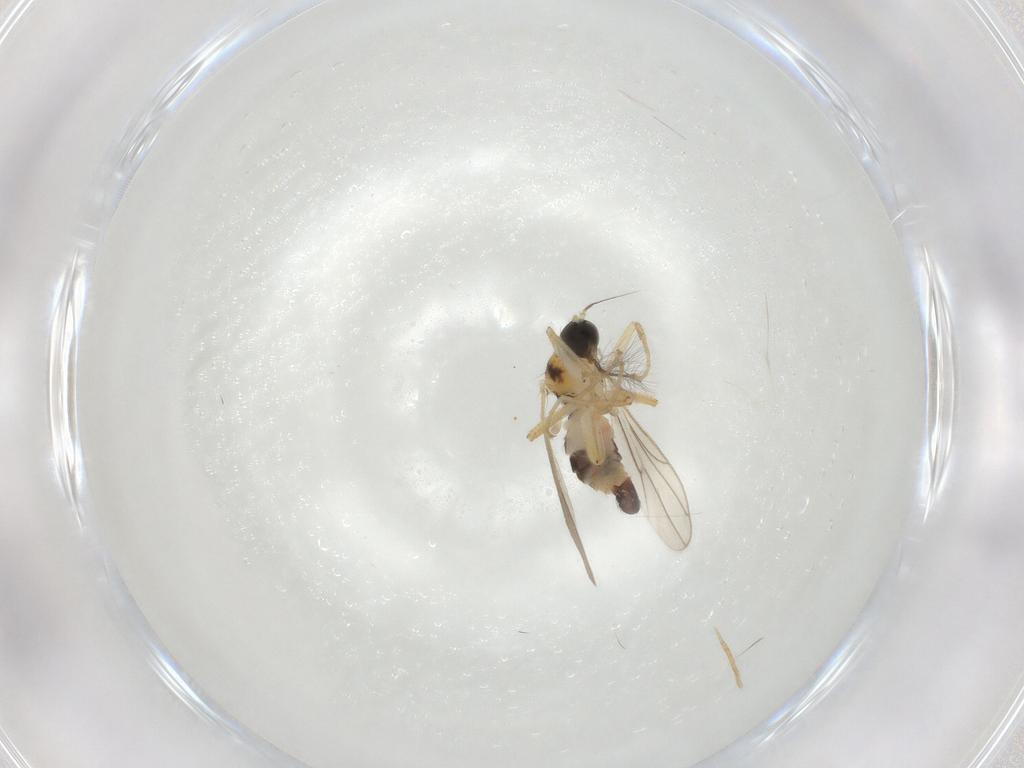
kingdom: Animalia
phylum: Arthropoda
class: Insecta
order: Diptera
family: Hybotidae
